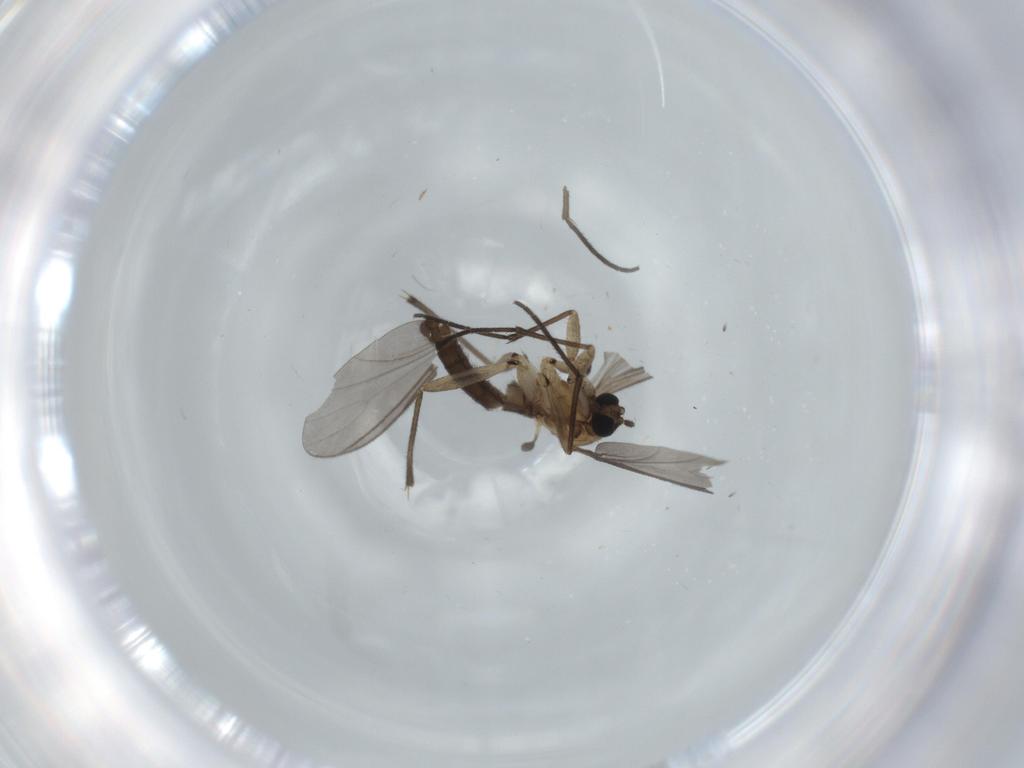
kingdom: Animalia
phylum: Arthropoda
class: Insecta
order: Diptera
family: Sciaridae
